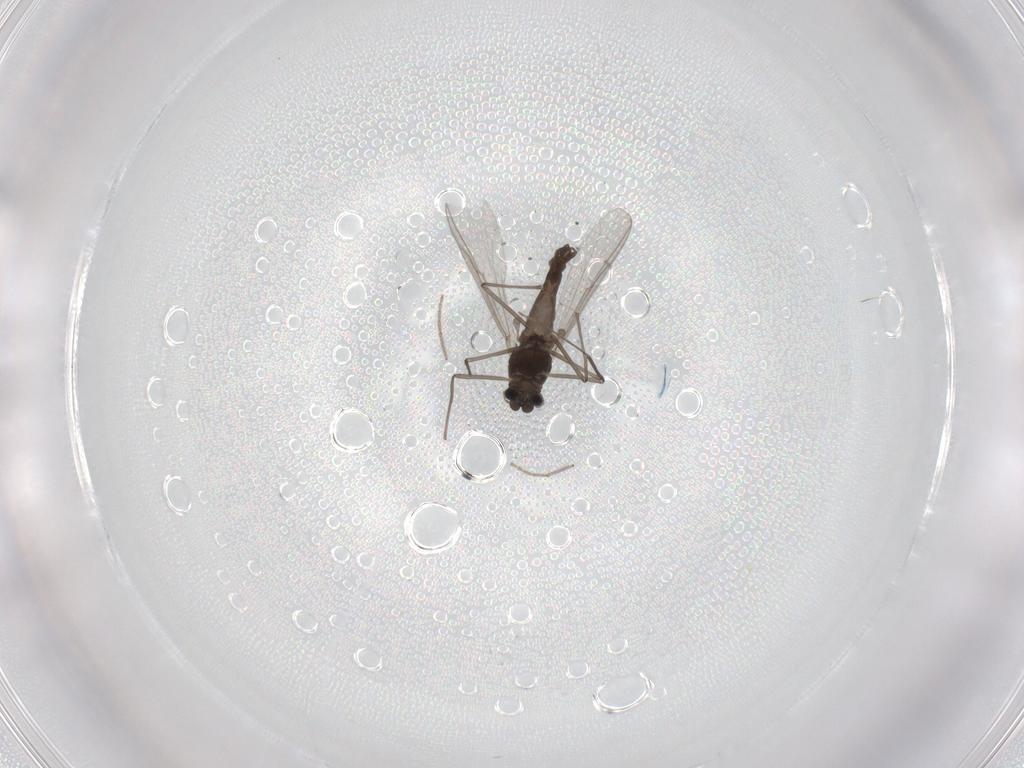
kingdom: Animalia
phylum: Arthropoda
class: Insecta
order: Diptera
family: Chironomidae
